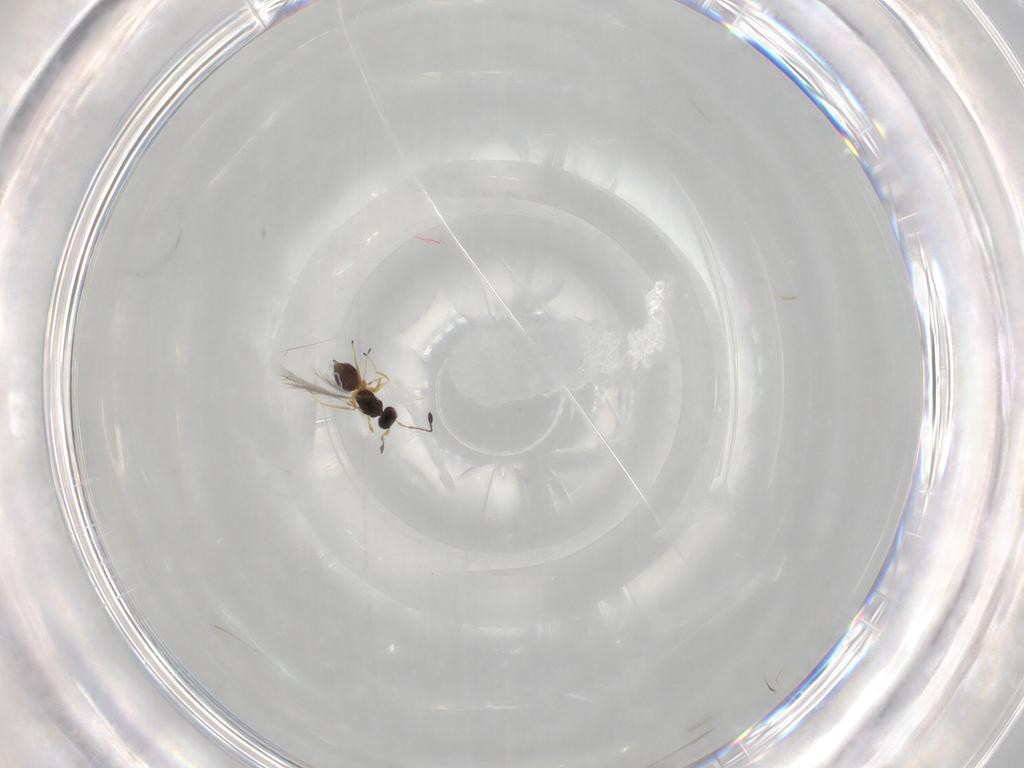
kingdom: Animalia
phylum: Arthropoda
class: Insecta
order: Hymenoptera
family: Mymaridae
